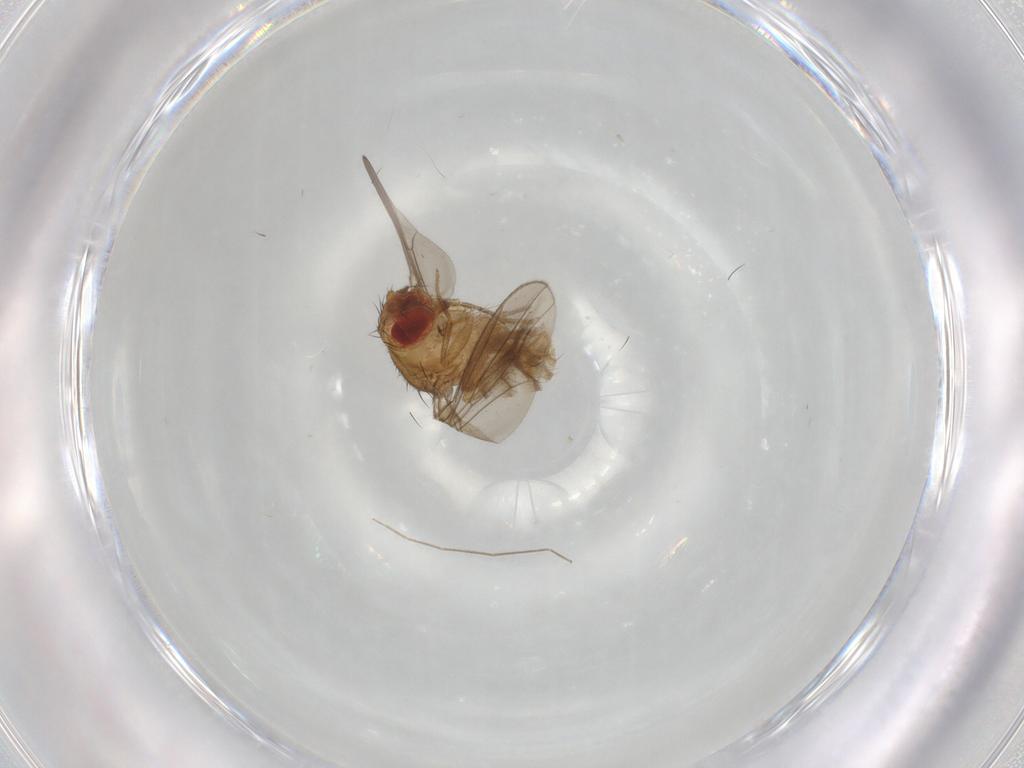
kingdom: Animalia
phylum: Arthropoda
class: Insecta
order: Diptera
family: Drosophilidae
